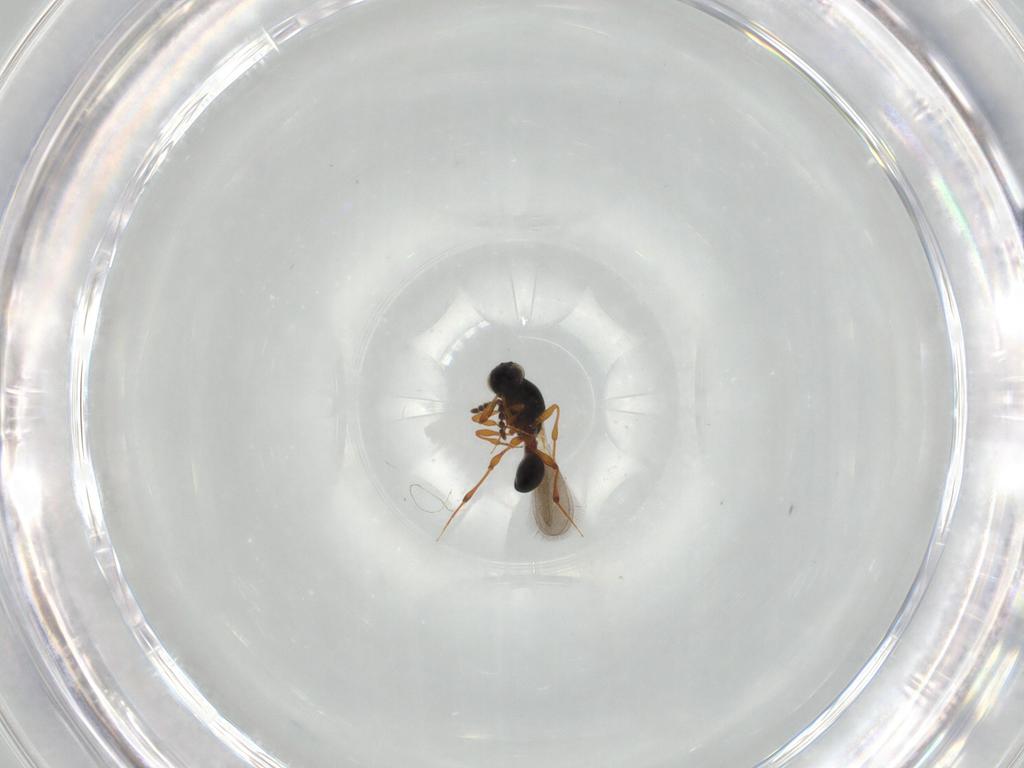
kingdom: Animalia
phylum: Arthropoda
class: Insecta
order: Hymenoptera
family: Platygastridae
